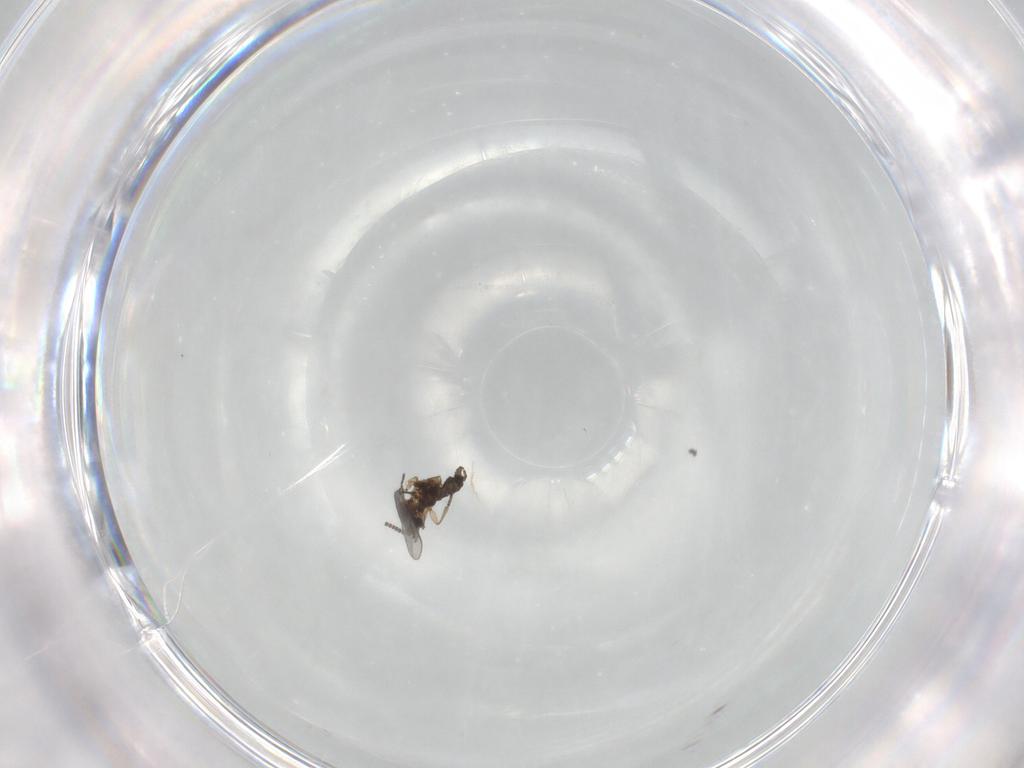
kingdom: Animalia
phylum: Arthropoda
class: Insecta
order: Diptera
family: Sciaridae
